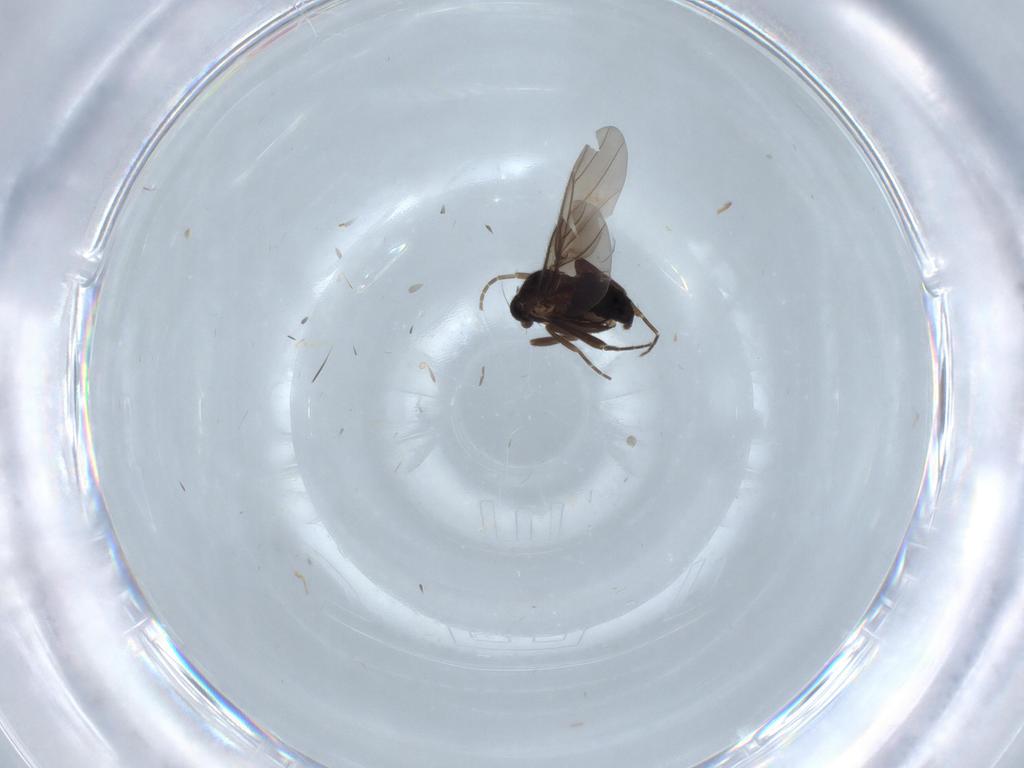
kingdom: Animalia
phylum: Arthropoda
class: Insecta
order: Diptera
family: Phoridae
